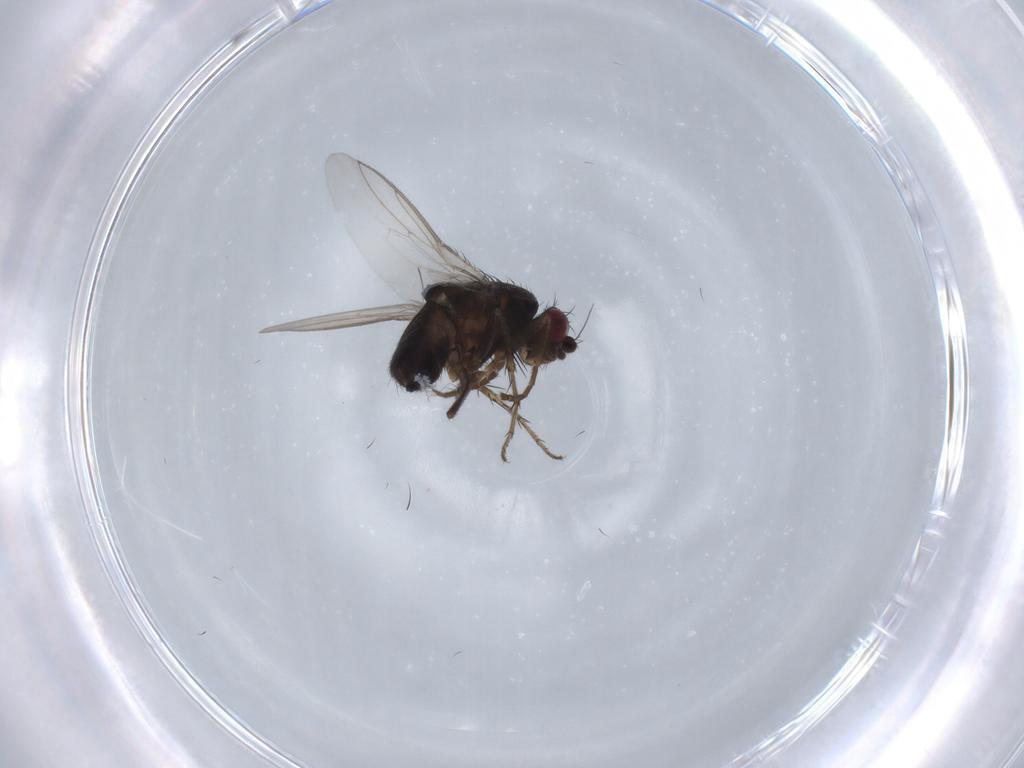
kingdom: Animalia
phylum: Arthropoda
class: Insecta
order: Diptera
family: Sphaeroceridae
